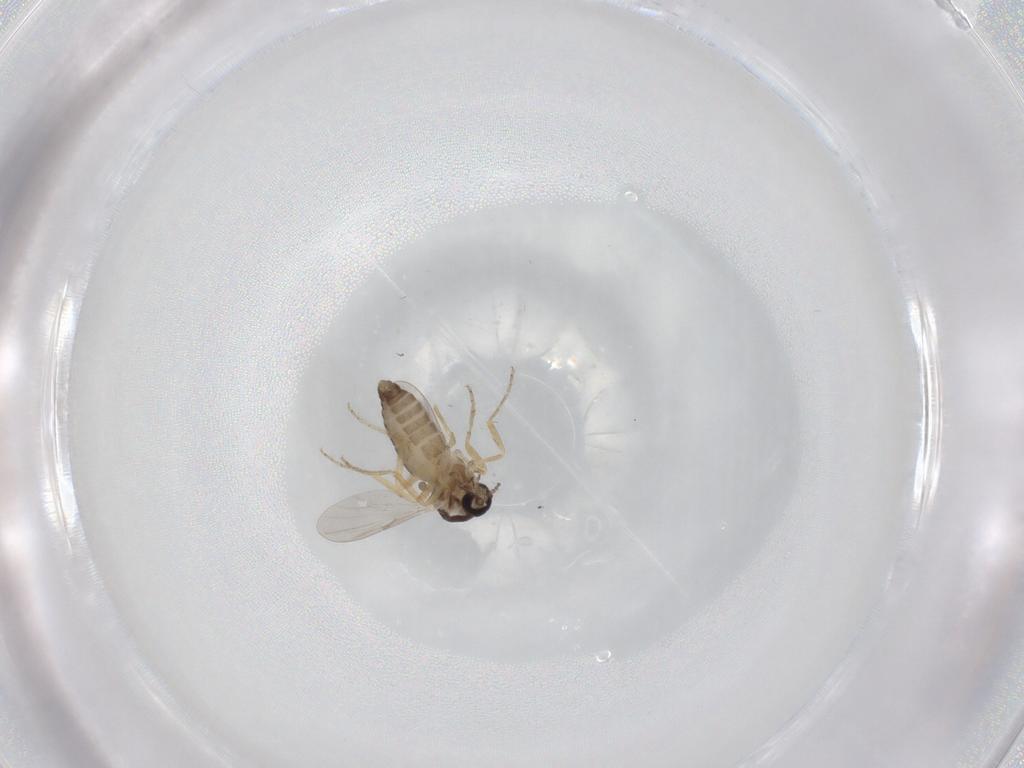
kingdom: Animalia
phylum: Arthropoda
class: Insecta
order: Diptera
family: Ceratopogonidae
